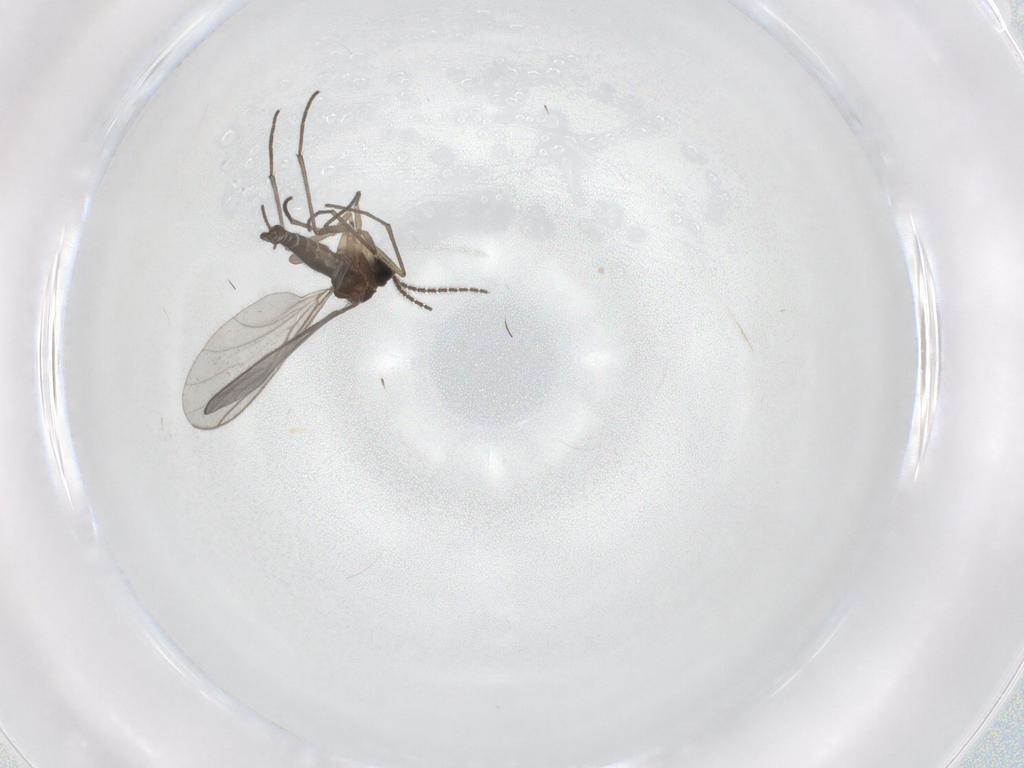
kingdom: Animalia
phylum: Arthropoda
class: Insecta
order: Diptera
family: Sciaridae
